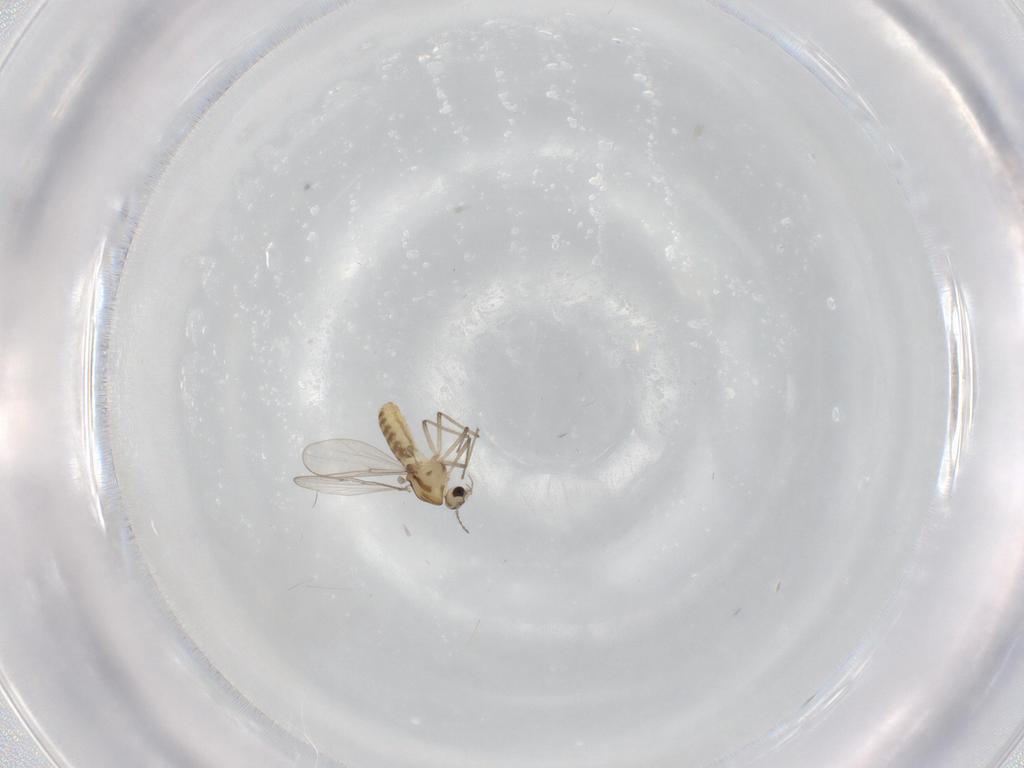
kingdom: Animalia
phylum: Arthropoda
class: Insecta
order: Diptera
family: Chironomidae
